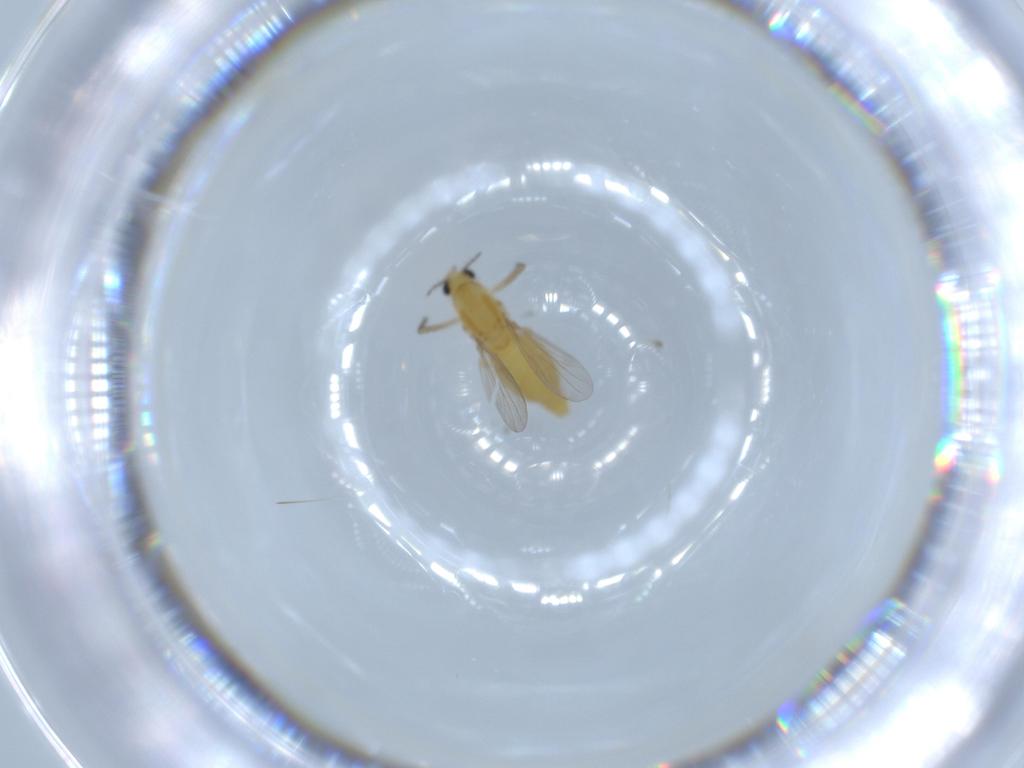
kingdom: Animalia
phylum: Arthropoda
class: Insecta
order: Diptera
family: Chironomidae
